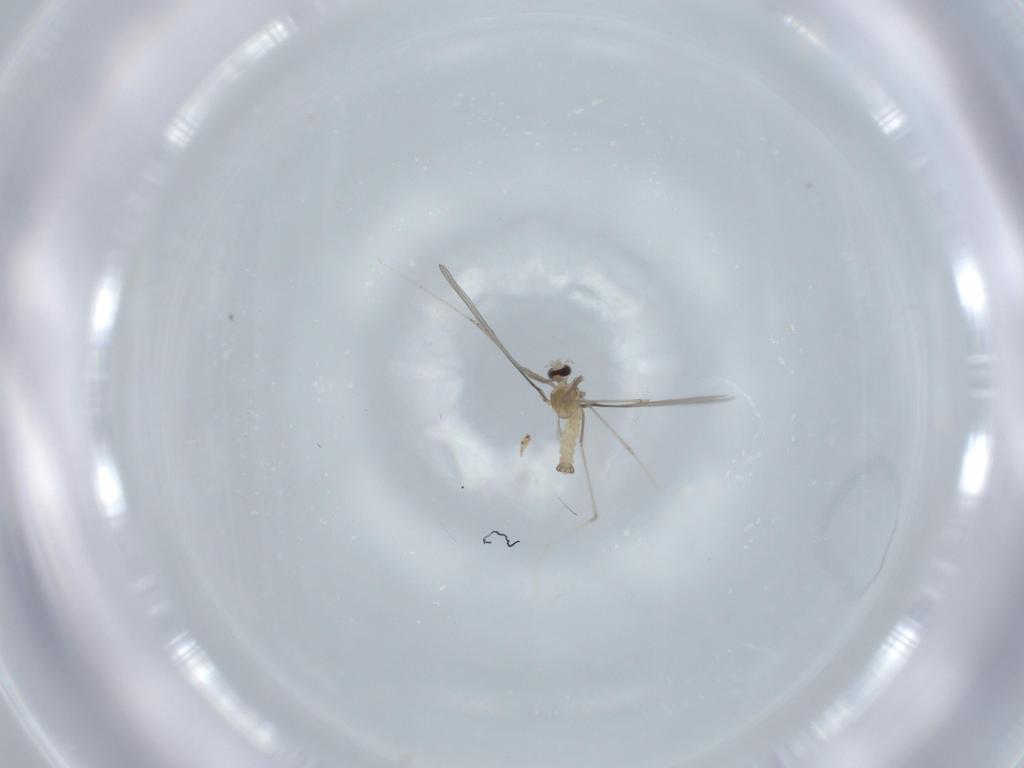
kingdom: Animalia
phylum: Arthropoda
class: Insecta
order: Diptera
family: Cecidomyiidae
